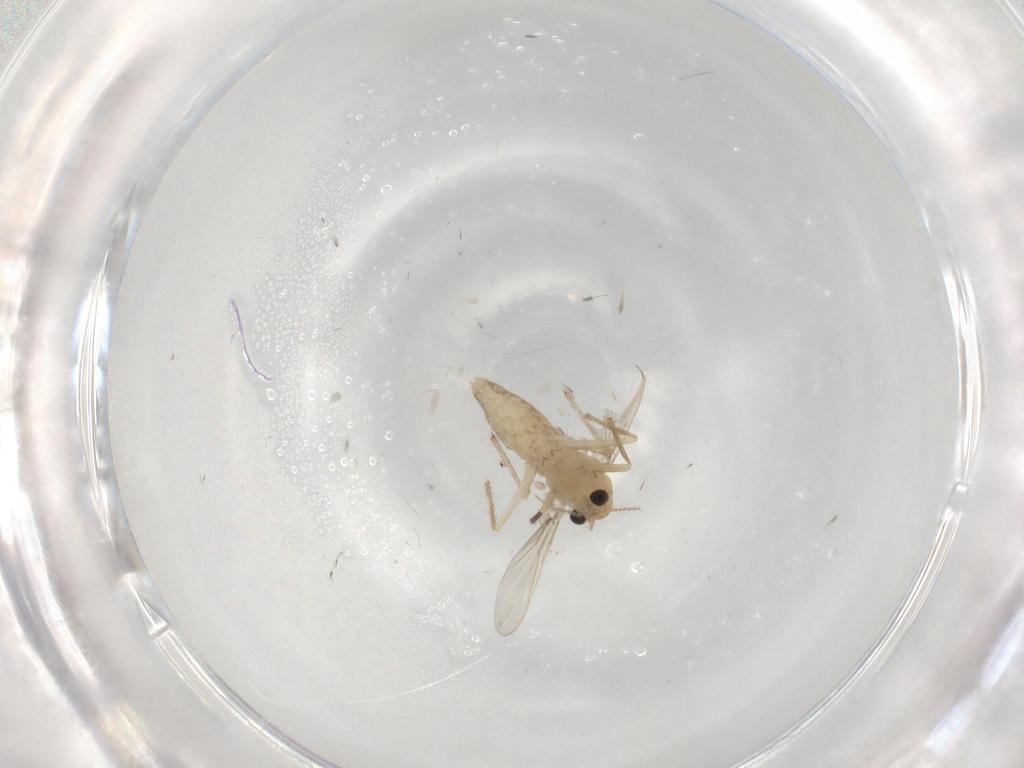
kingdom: Animalia
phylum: Arthropoda
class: Insecta
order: Diptera
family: Chironomidae
